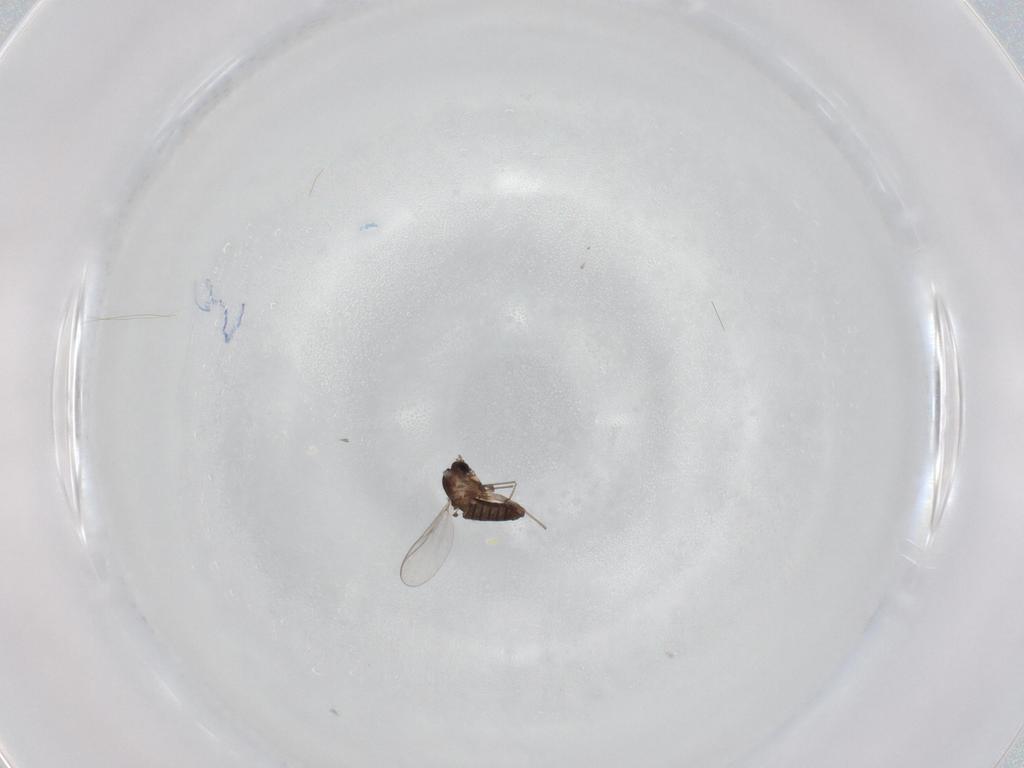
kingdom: Animalia
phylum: Arthropoda
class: Insecta
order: Diptera
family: Chironomidae
